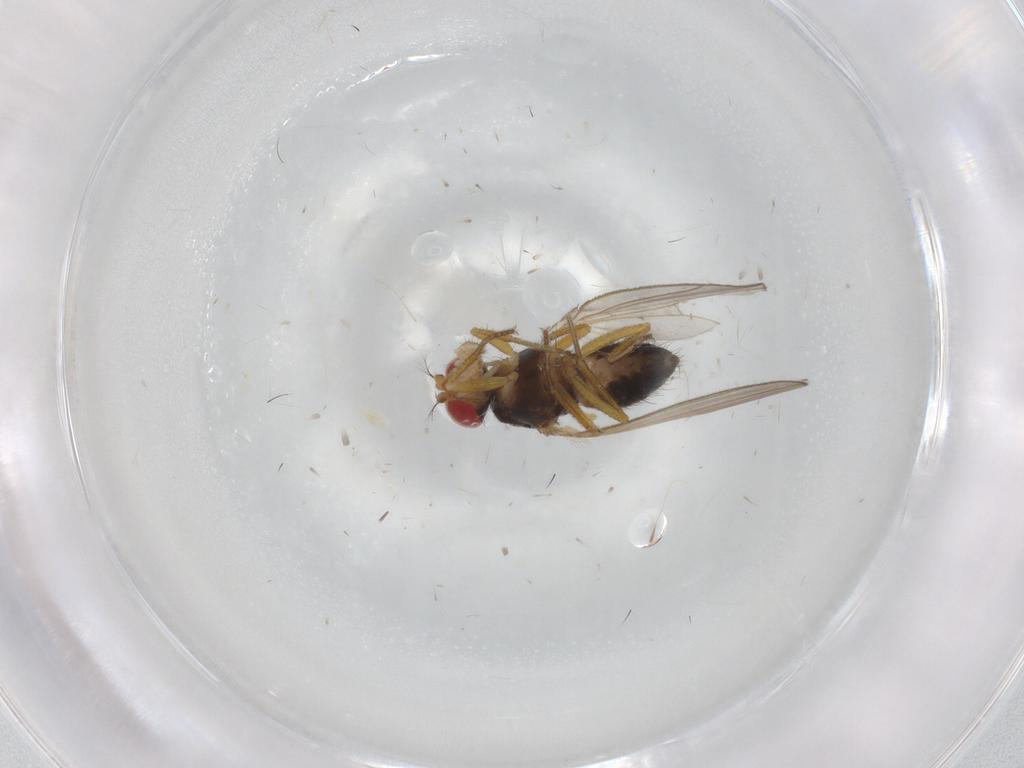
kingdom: Animalia
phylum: Arthropoda
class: Insecta
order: Diptera
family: Drosophilidae
